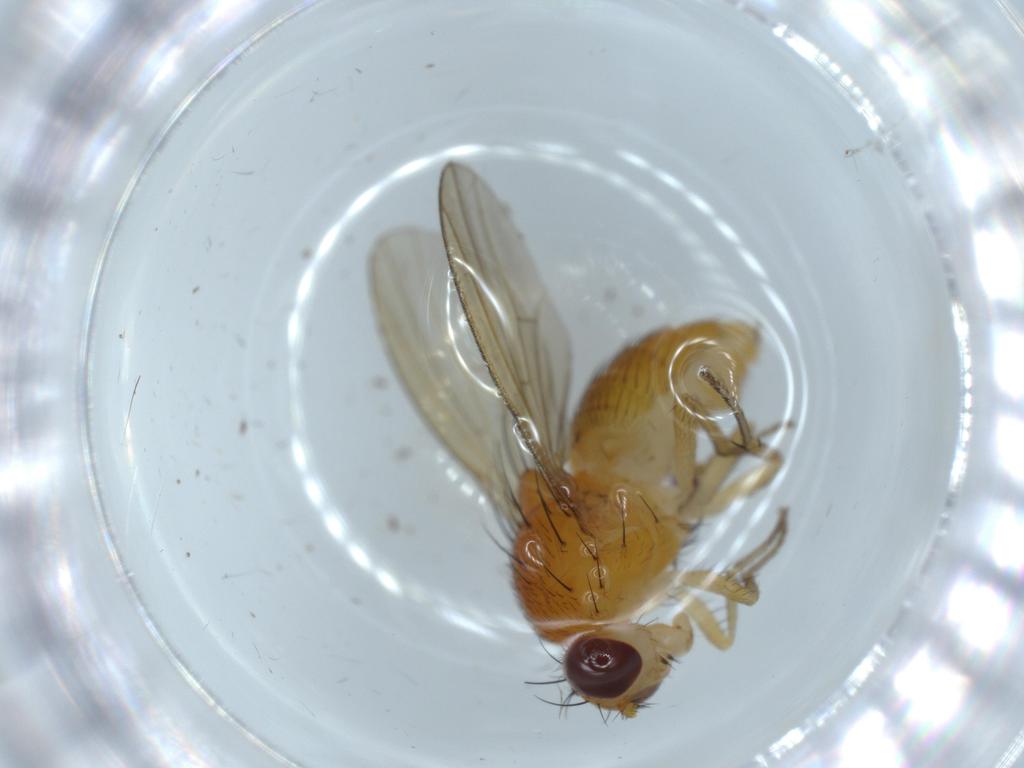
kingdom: Animalia
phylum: Arthropoda
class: Insecta
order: Diptera
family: Lauxaniidae
